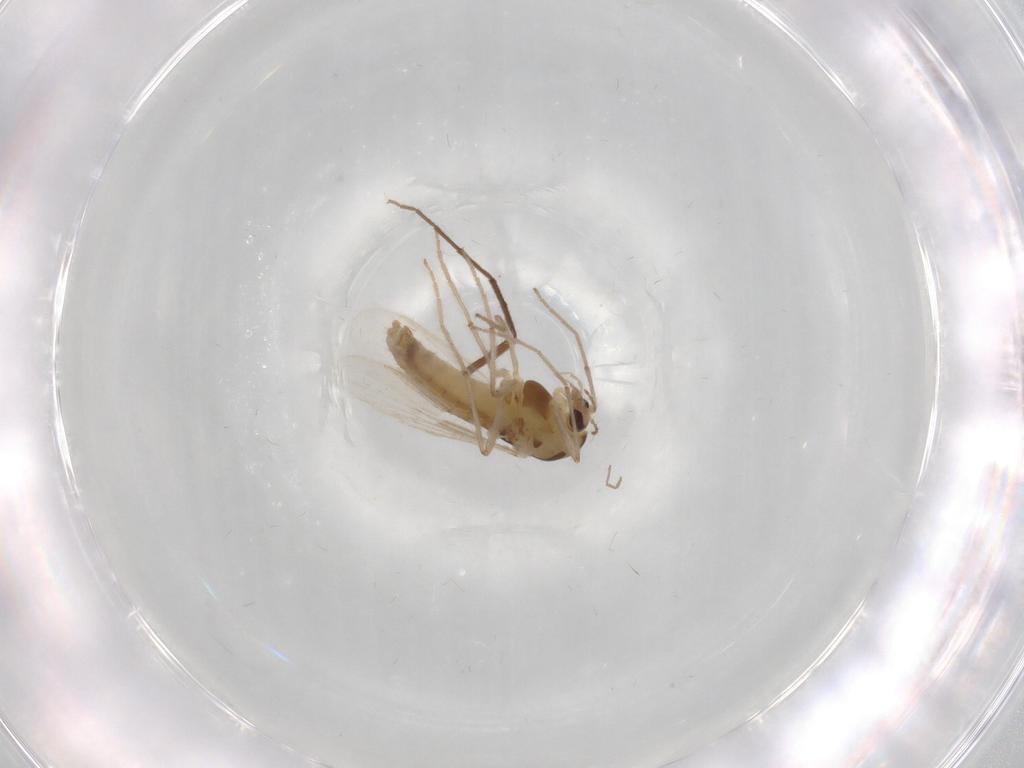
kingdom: Animalia
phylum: Arthropoda
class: Insecta
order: Diptera
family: Chironomidae
